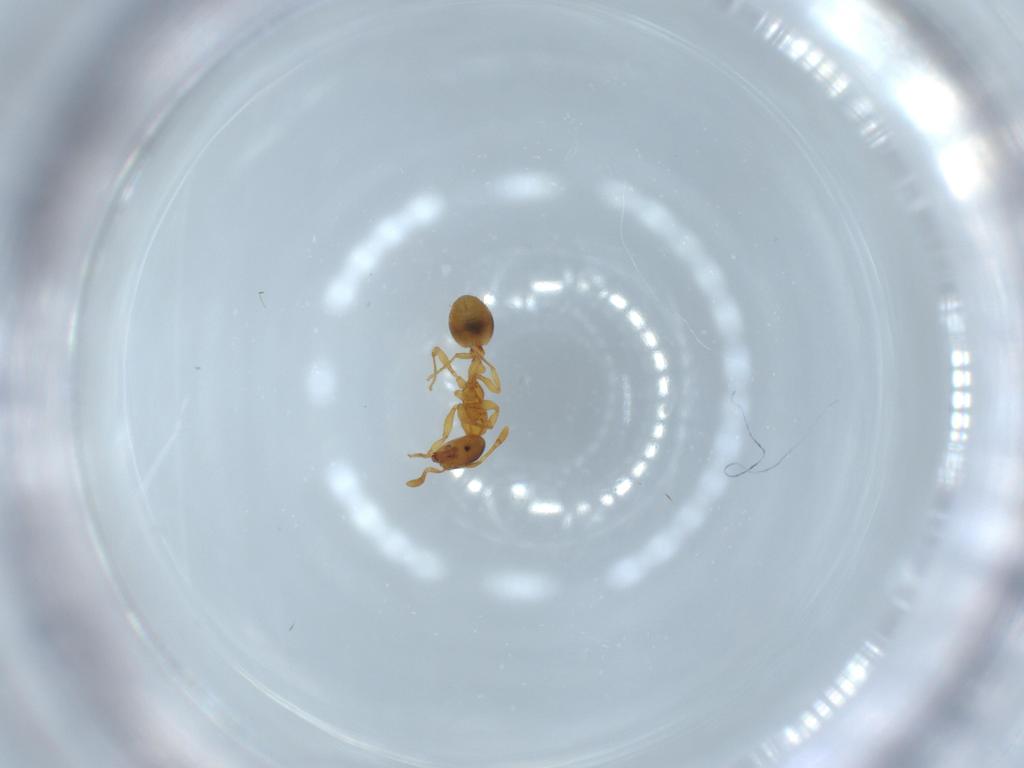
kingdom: Animalia
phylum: Arthropoda
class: Insecta
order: Hymenoptera
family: Formicidae
